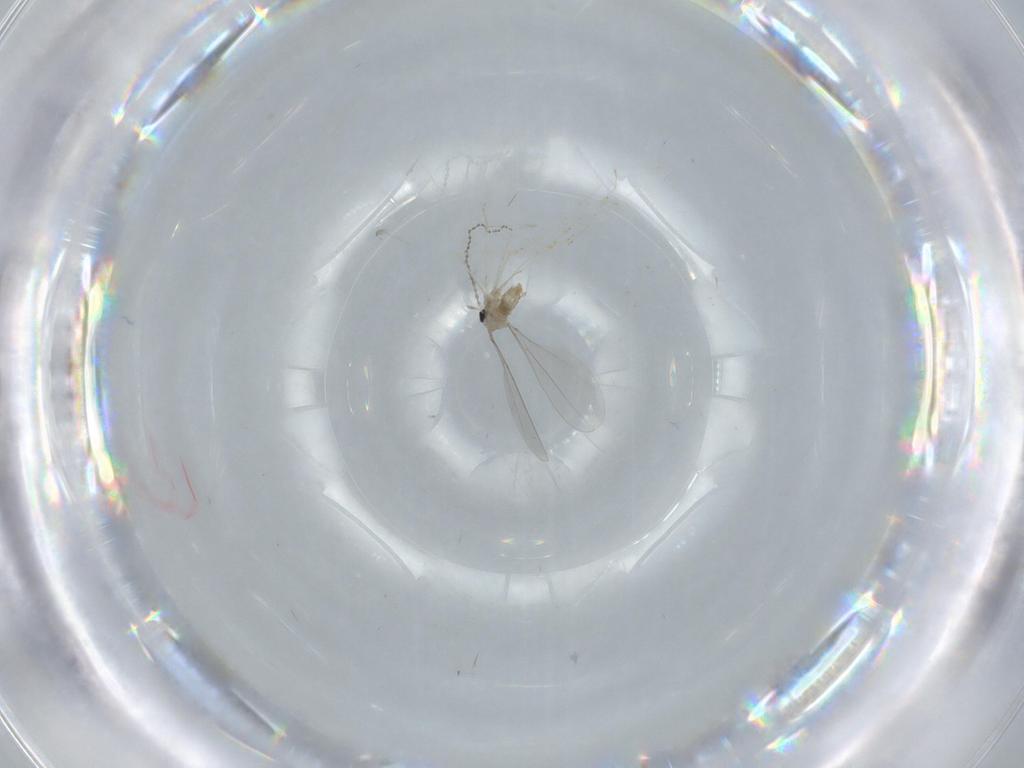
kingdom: Animalia
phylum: Arthropoda
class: Insecta
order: Diptera
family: Cecidomyiidae
